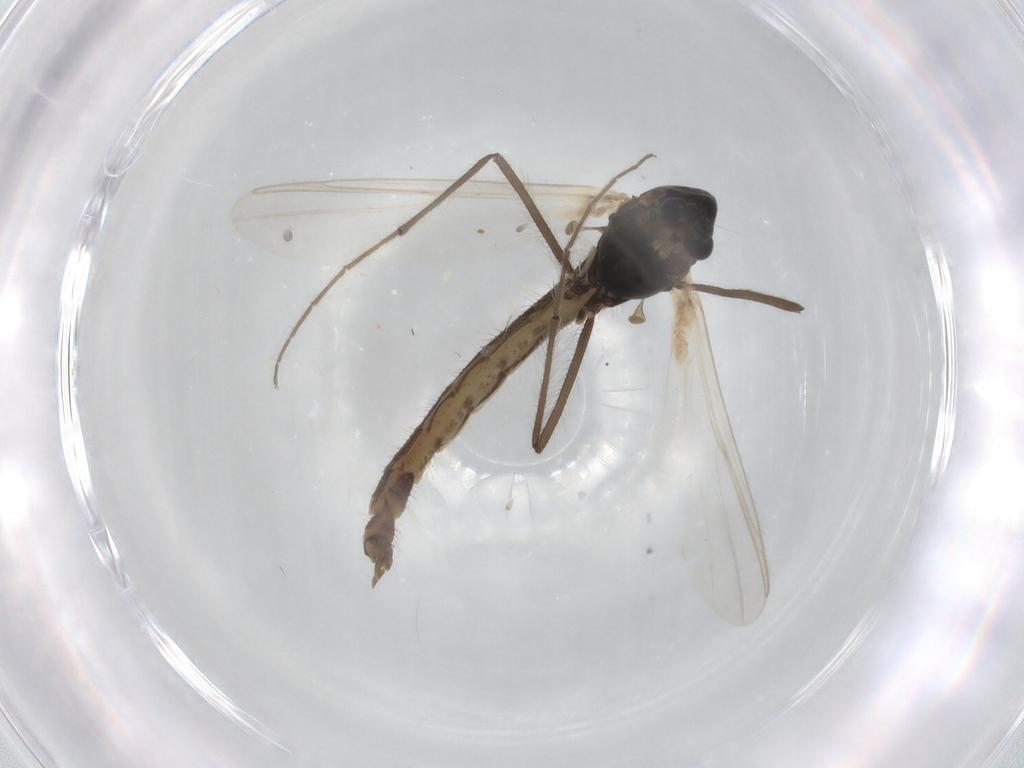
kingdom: Animalia
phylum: Arthropoda
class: Insecta
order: Diptera
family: Chironomidae
